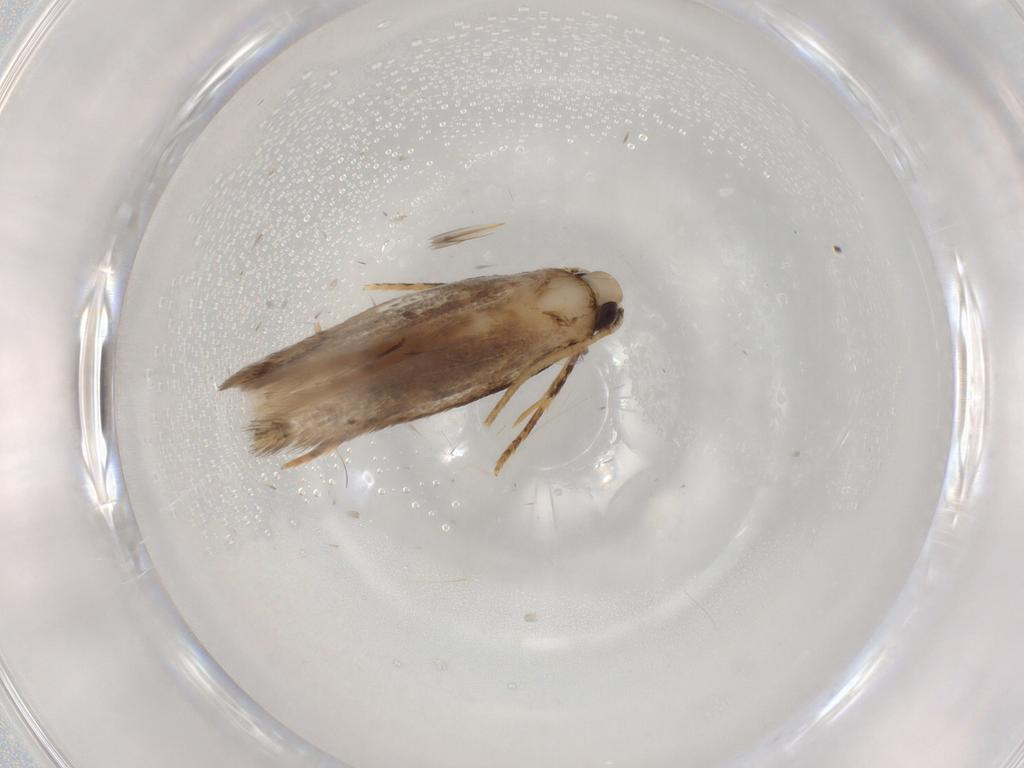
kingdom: Animalia
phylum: Arthropoda
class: Insecta
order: Lepidoptera
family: Coleophoridae
